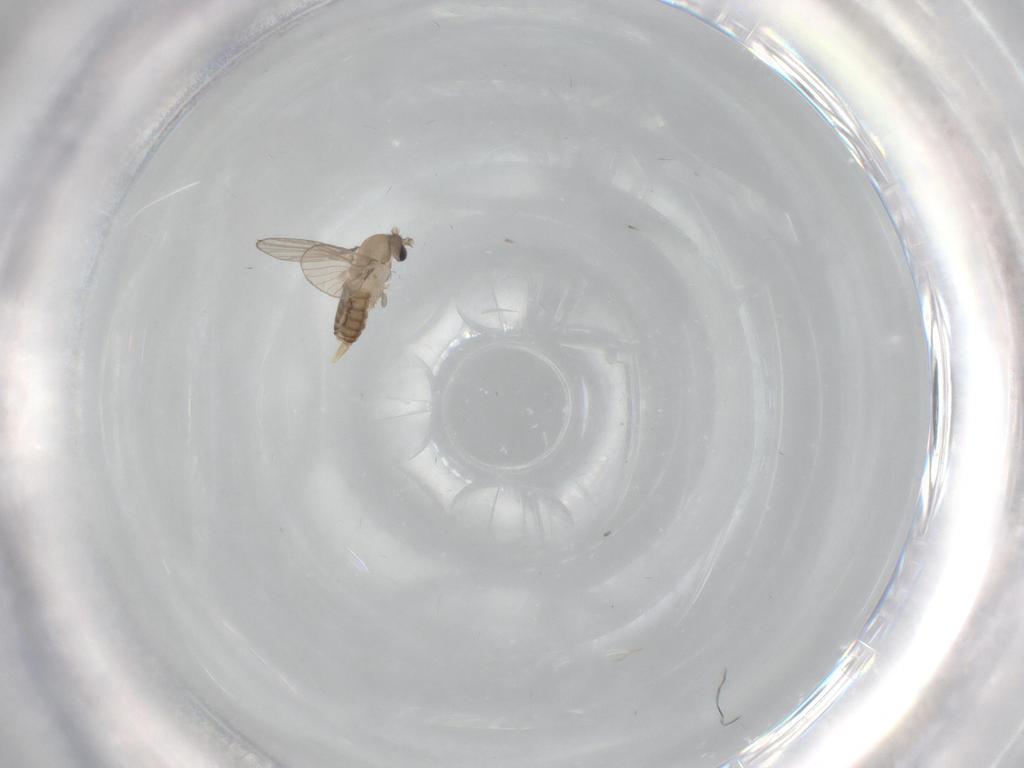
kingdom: Animalia
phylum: Arthropoda
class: Insecta
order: Diptera
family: Psychodidae
